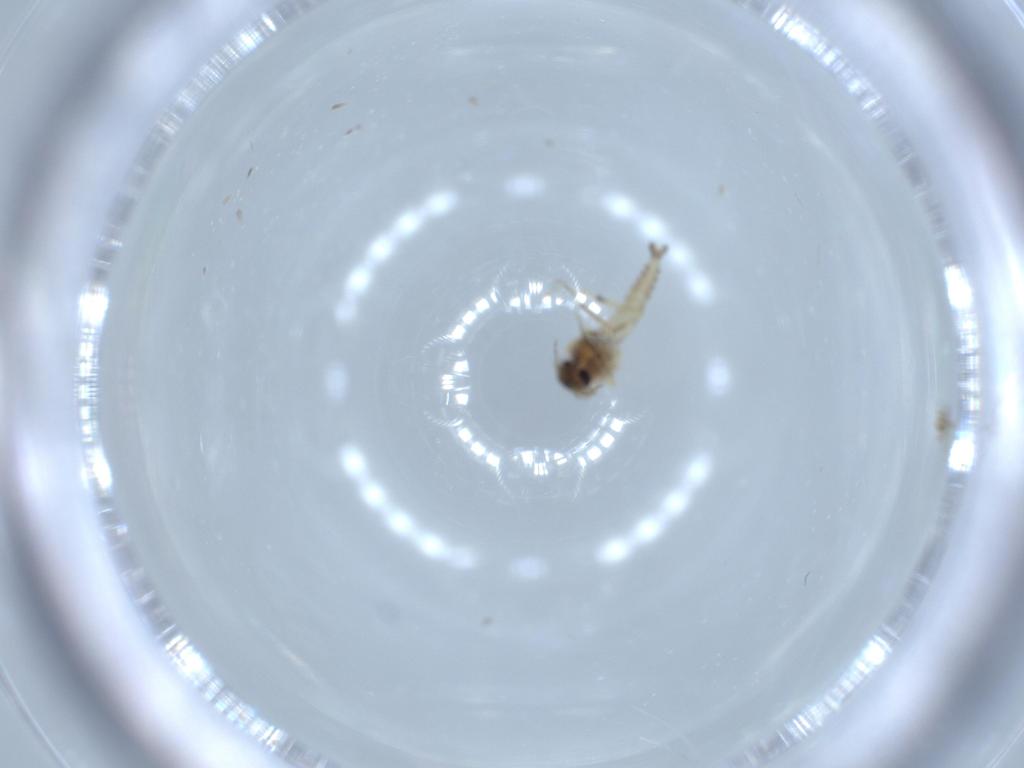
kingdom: Animalia
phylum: Arthropoda
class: Insecta
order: Diptera
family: Ceratopogonidae
